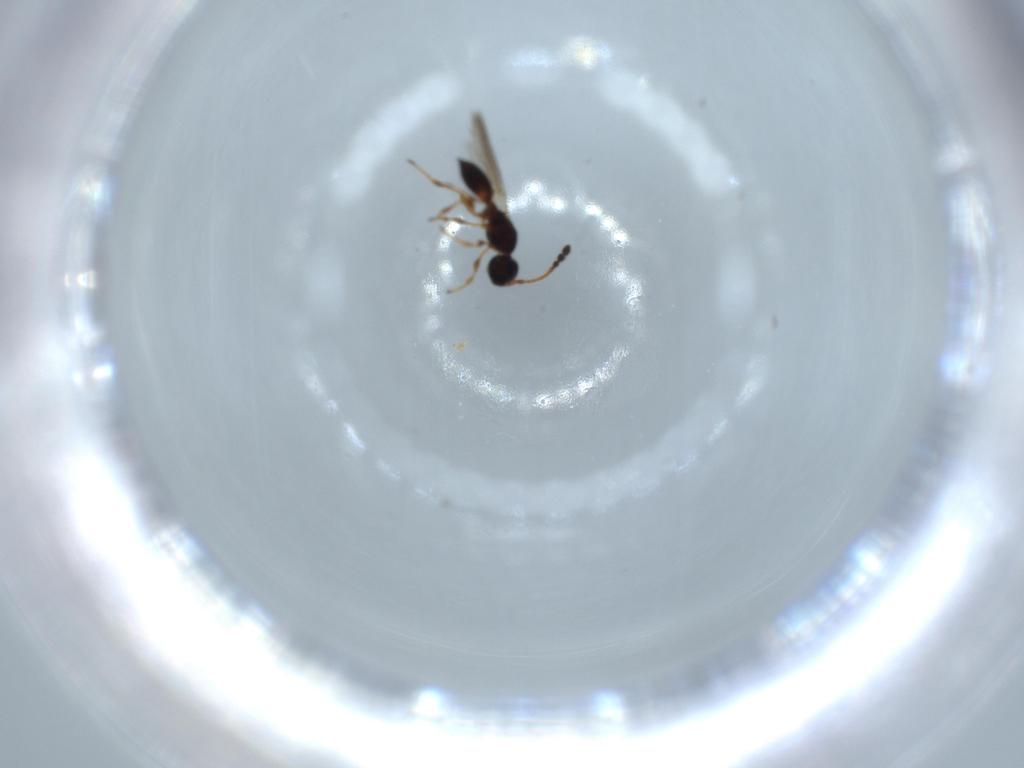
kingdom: Animalia
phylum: Arthropoda
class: Insecta
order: Hymenoptera
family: Diapriidae
